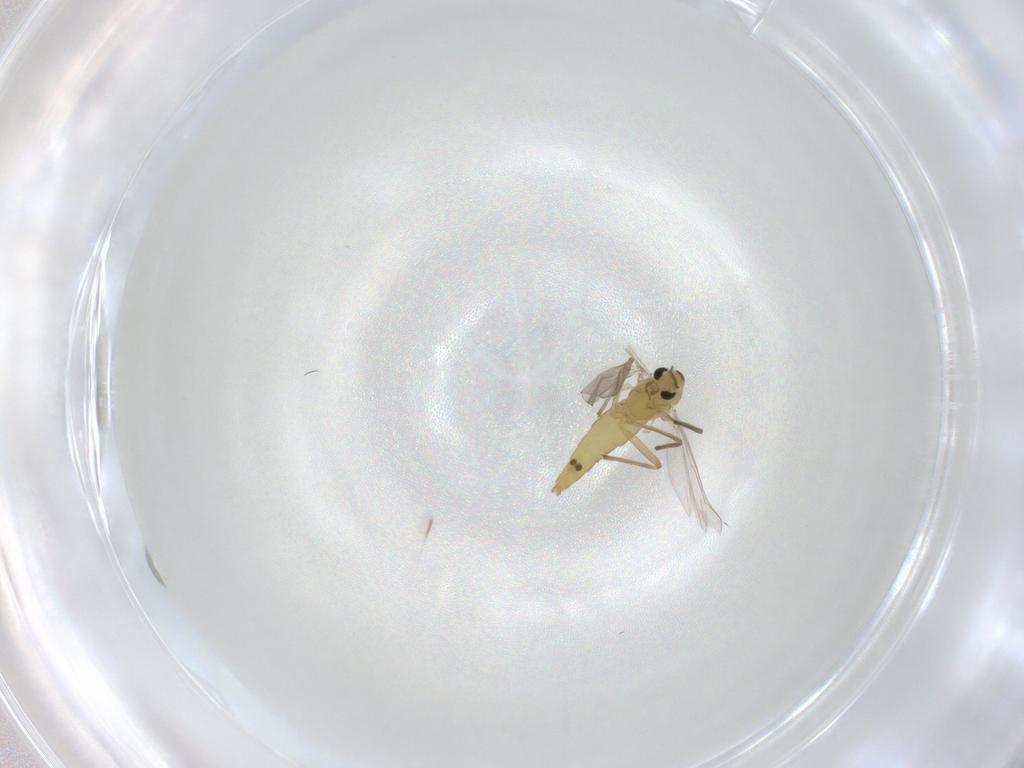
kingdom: Animalia
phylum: Arthropoda
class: Insecta
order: Diptera
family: Chironomidae
